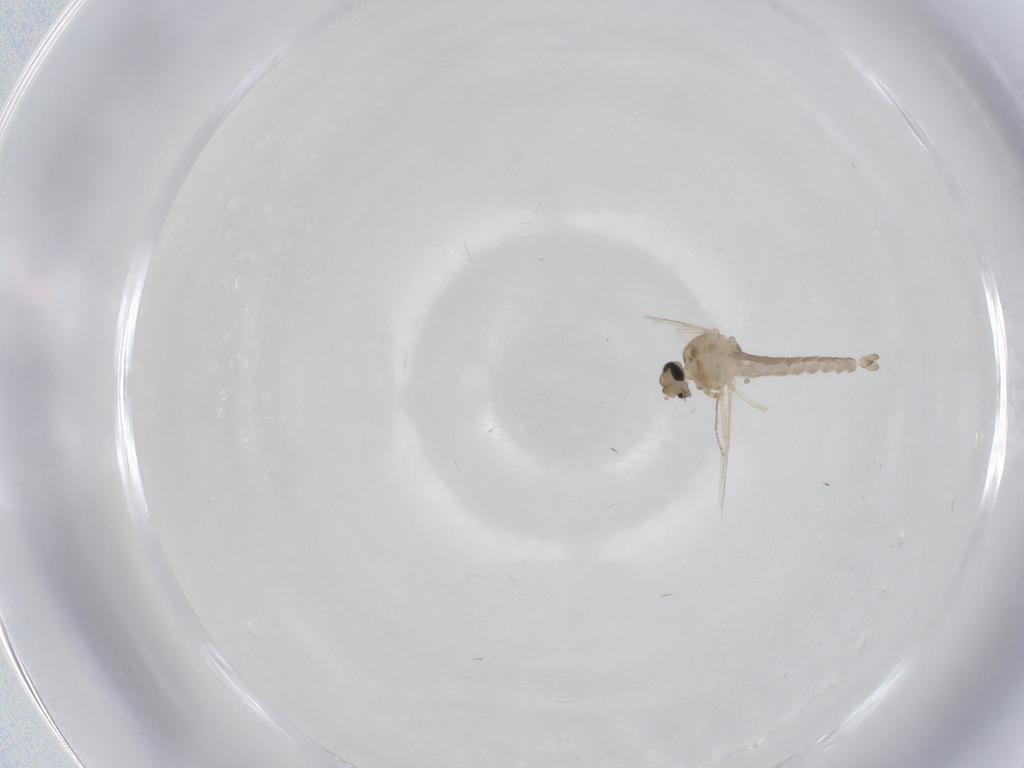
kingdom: Animalia
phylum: Arthropoda
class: Insecta
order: Diptera
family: Ceratopogonidae
